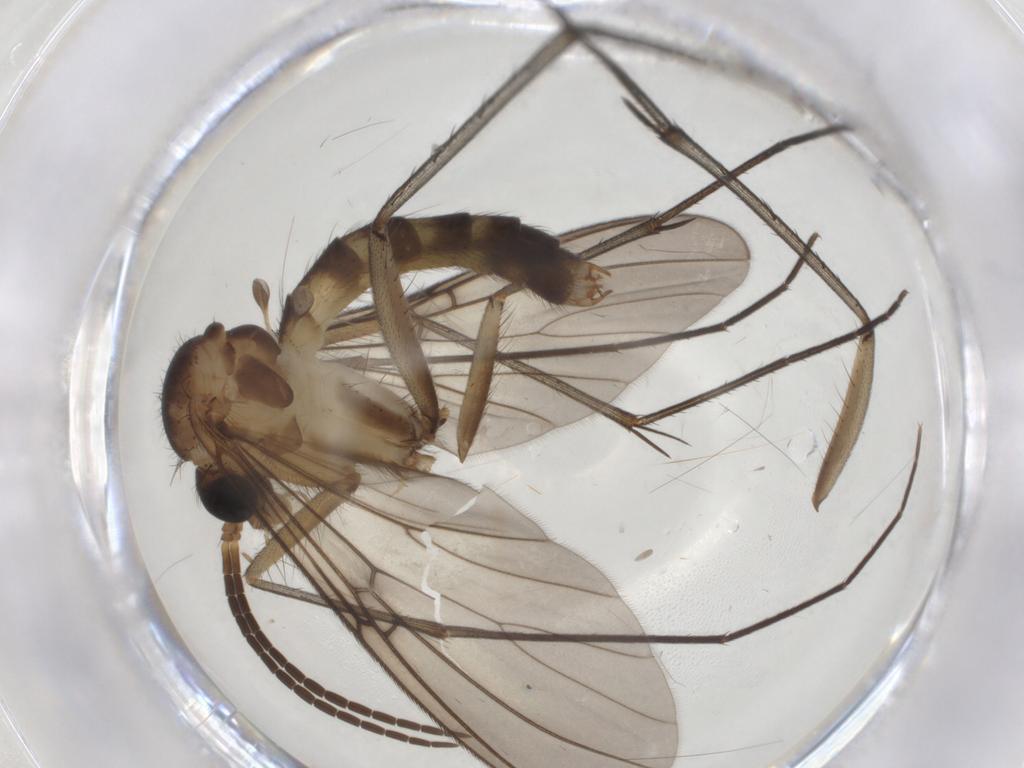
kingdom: Animalia
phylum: Arthropoda
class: Insecta
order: Diptera
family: Mycetophilidae
